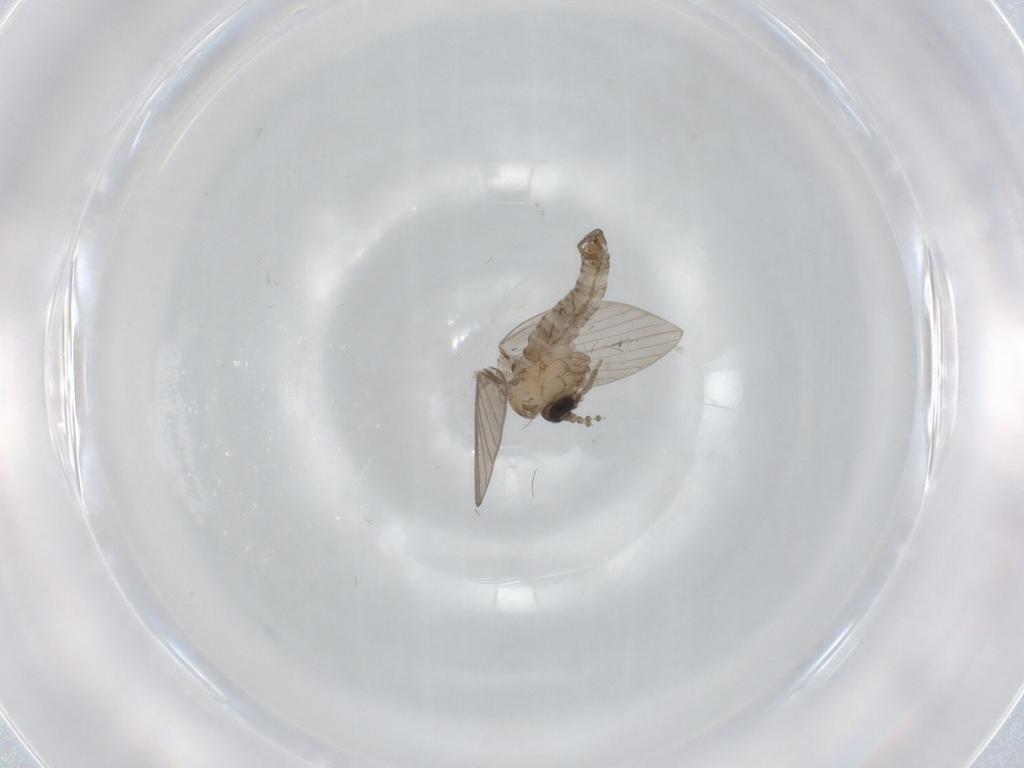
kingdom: Animalia
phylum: Arthropoda
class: Insecta
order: Diptera
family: Psychodidae
